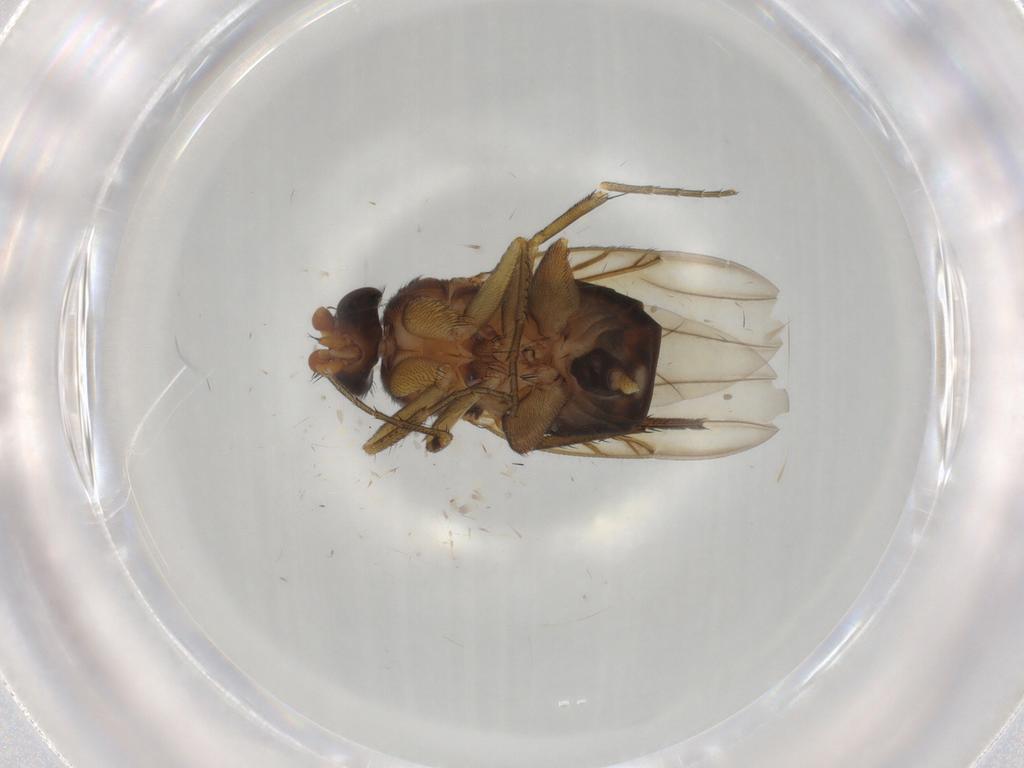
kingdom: Animalia
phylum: Arthropoda
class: Insecta
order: Diptera
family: Phoridae
